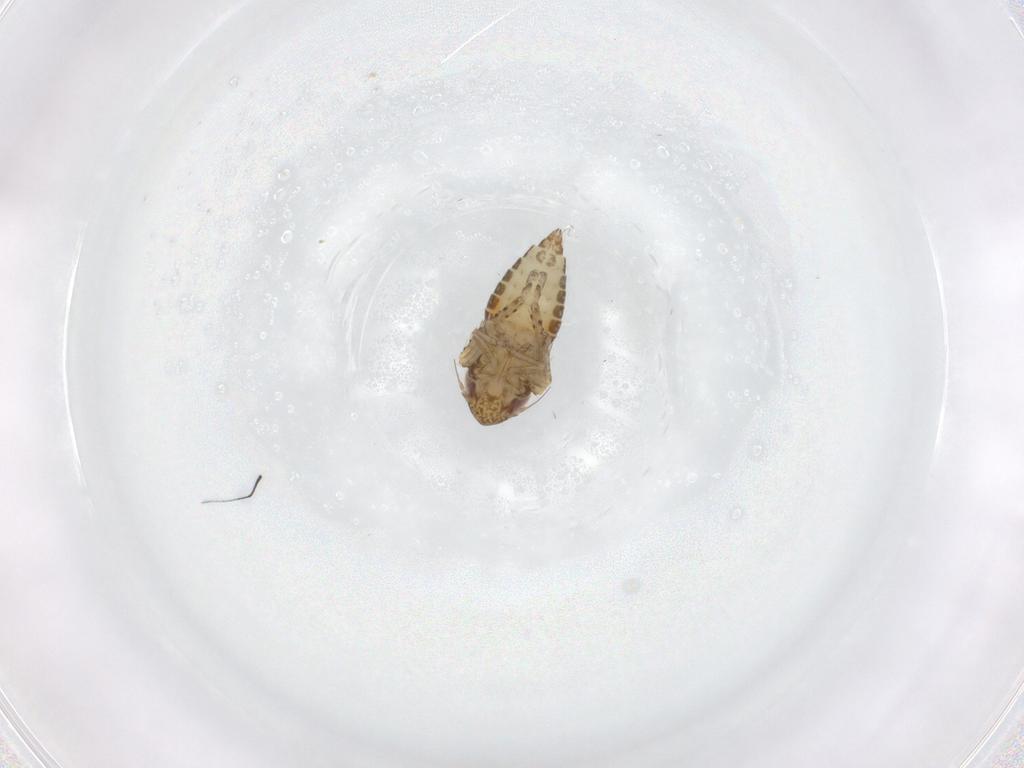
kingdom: Animalia
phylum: Arthropoda
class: Insecta
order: Hemiptera
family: Cicadellidae
